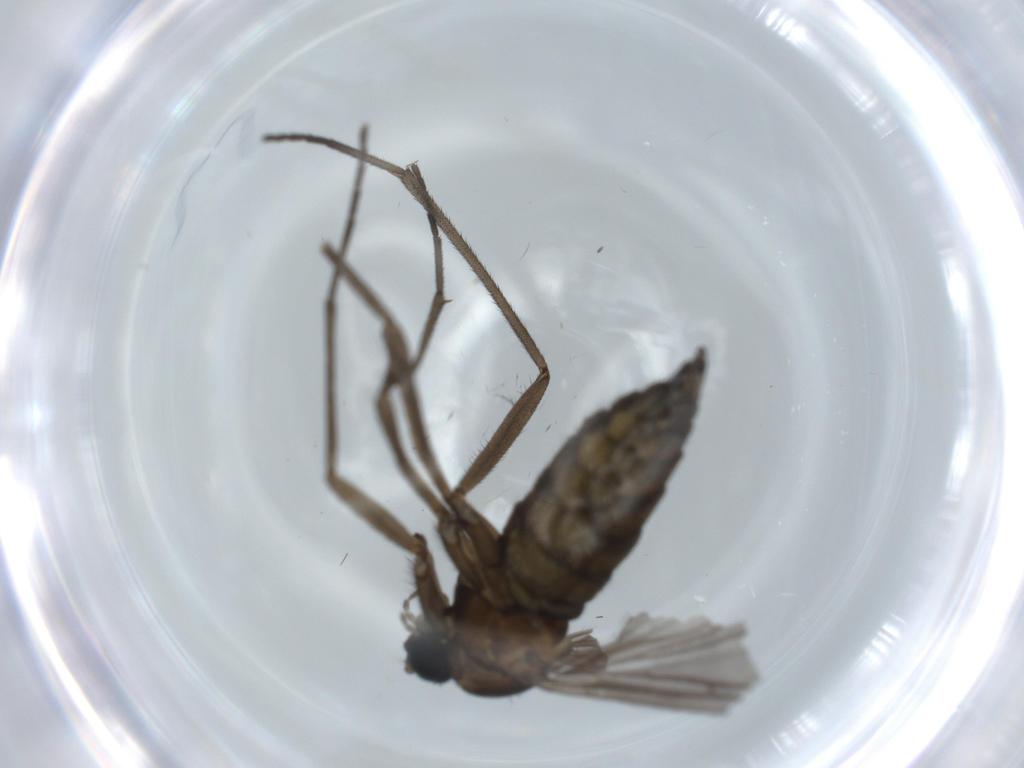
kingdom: Animalia
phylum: Arthropoda
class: Insecta
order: Diptera
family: Sciaridae
